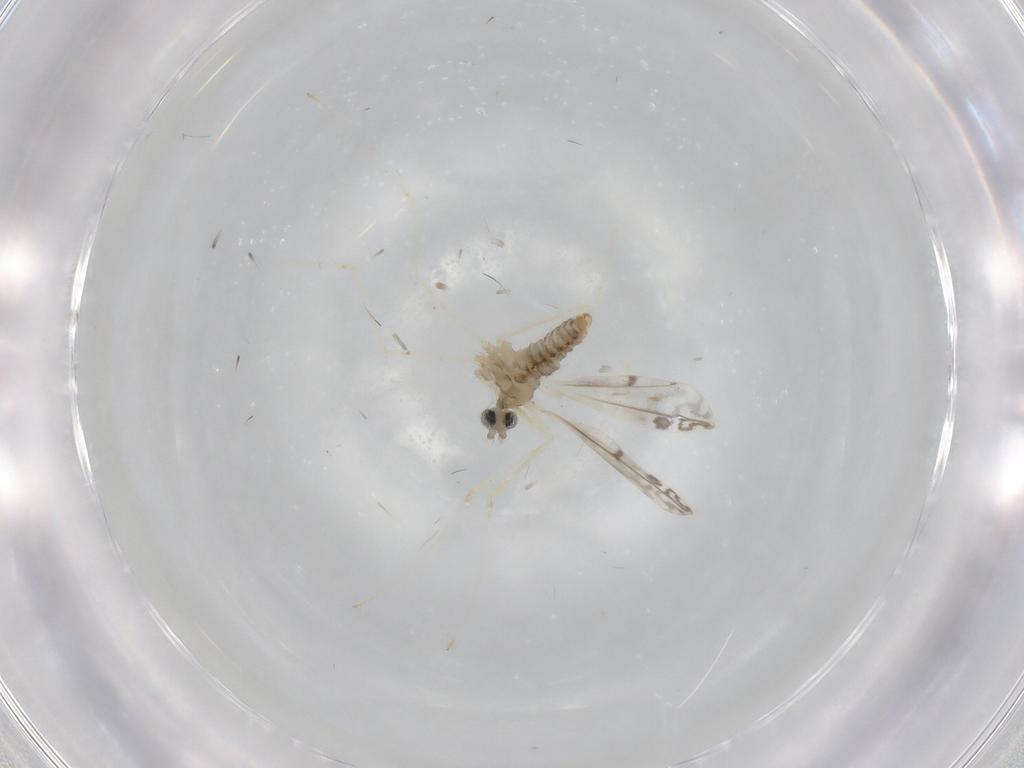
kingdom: Animalia
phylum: Arthropoda
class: Insecta
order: Diptera
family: Cecidomyiidae
